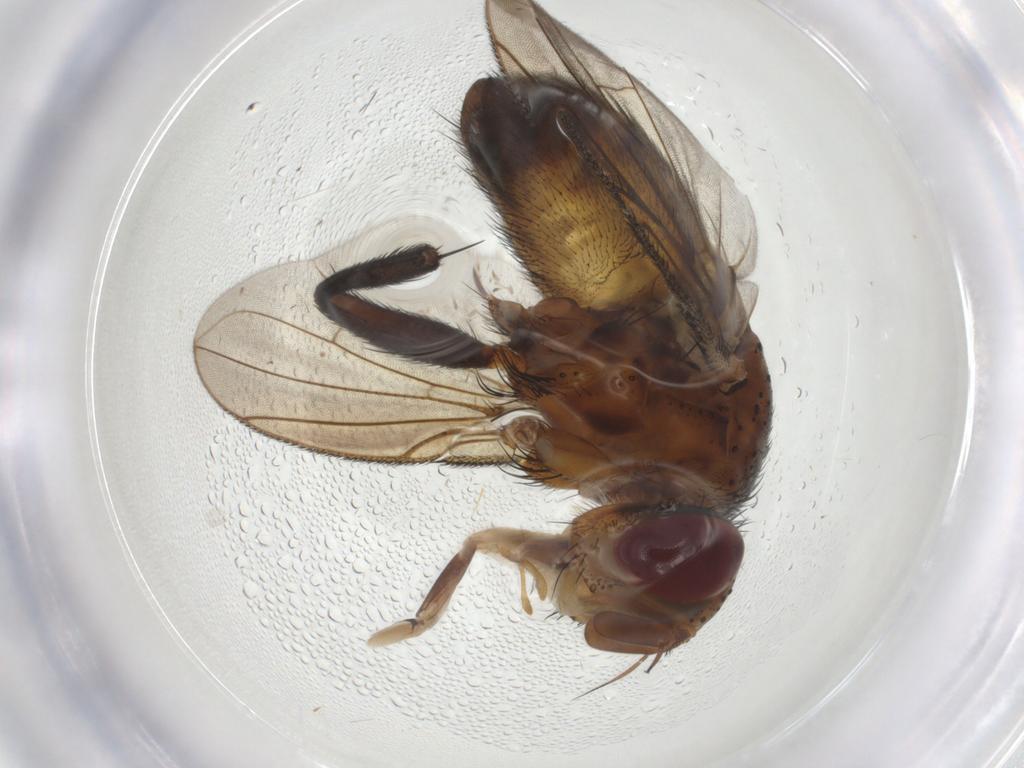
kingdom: Animalia
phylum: Arthropoda
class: Insecta
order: Diptera
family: Tachinidae
